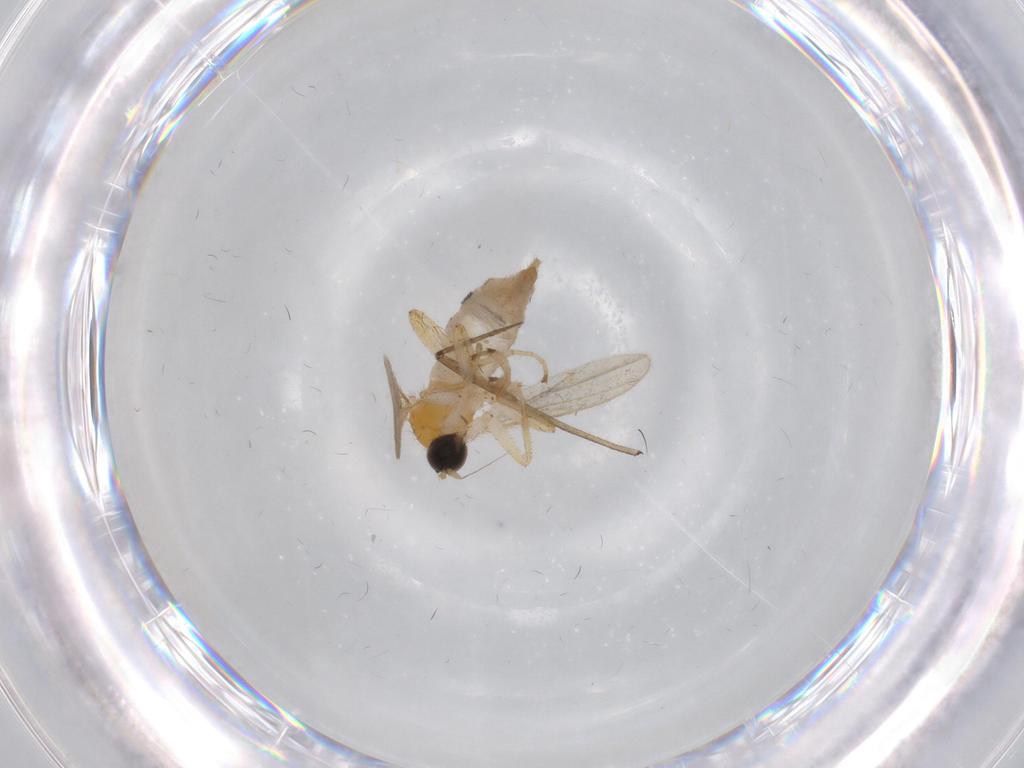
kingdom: Animalia
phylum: Arthropoda
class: Insecta
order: Diptera
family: Hybotidae
